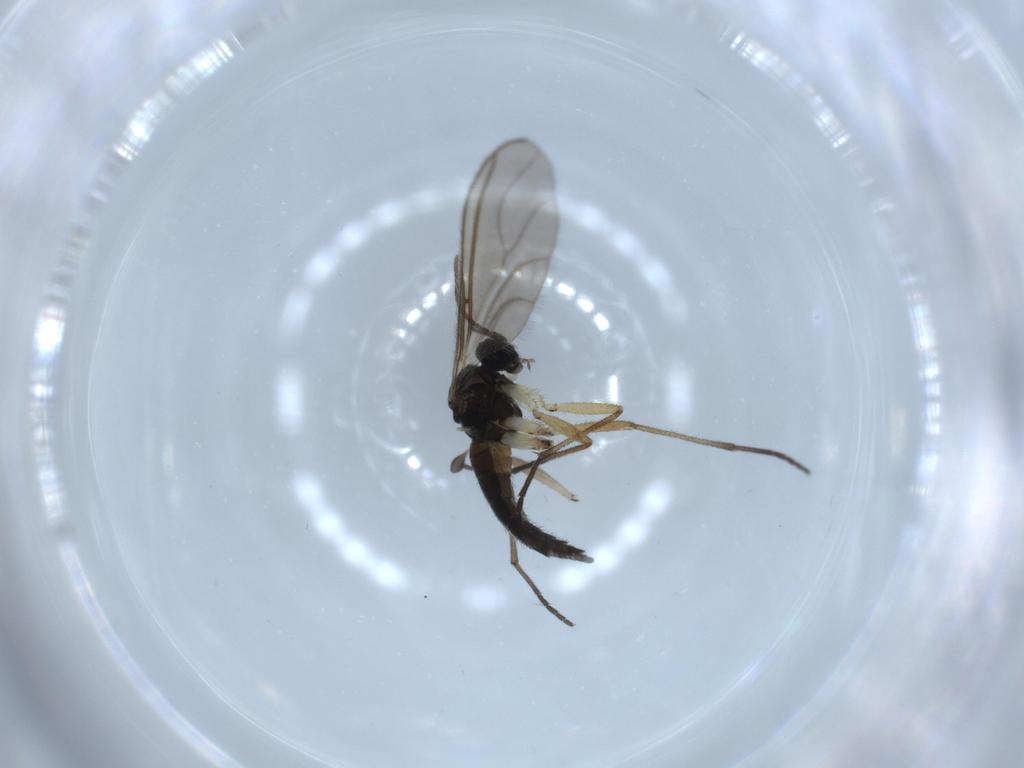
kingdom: Animalia
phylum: Arthropoda
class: Insecta
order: Diptera
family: Sciaridae
